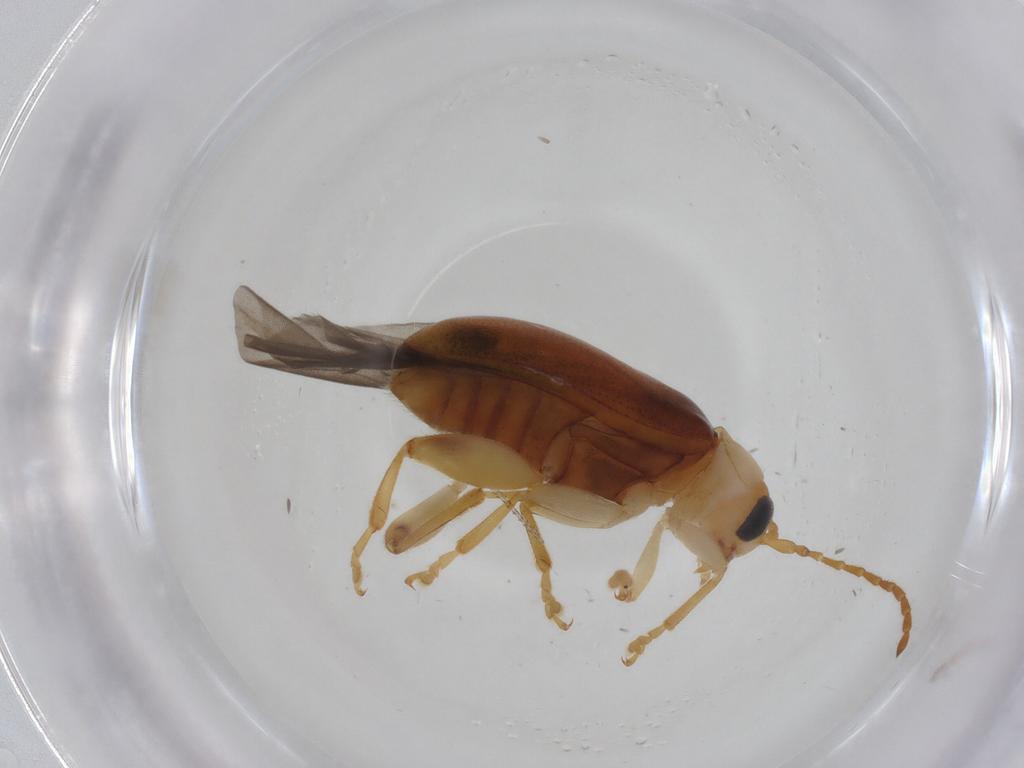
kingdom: Animalia
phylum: Arthropoda
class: Insecta
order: Coleoptera
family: Chrysomelidae
